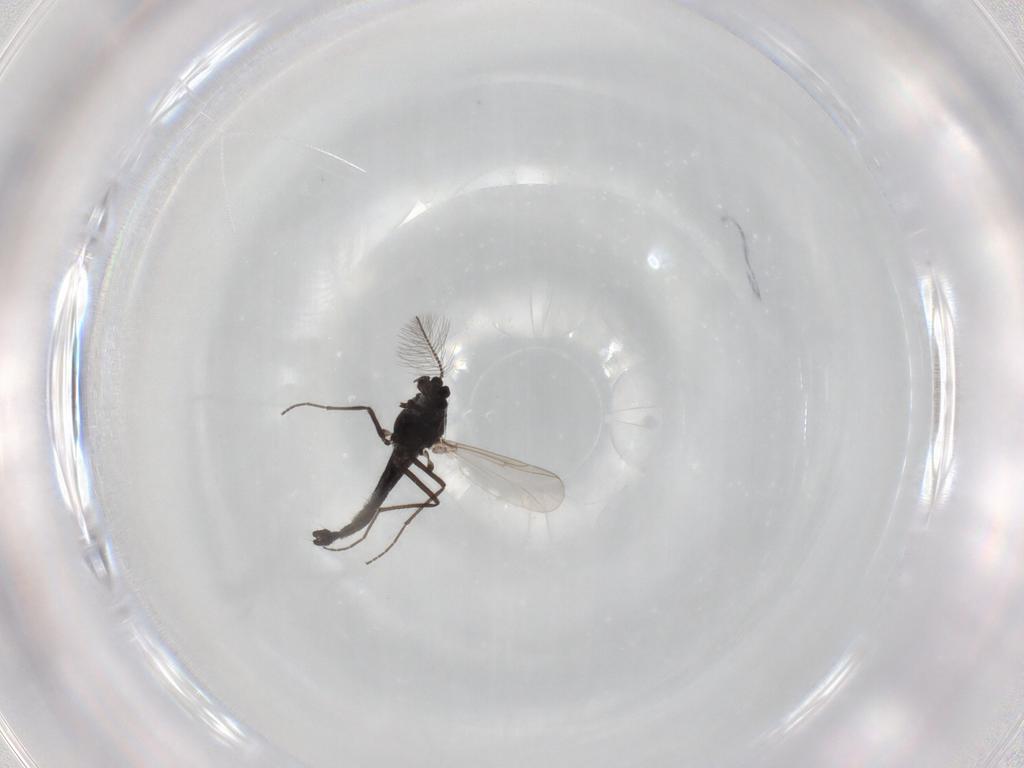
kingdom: Animalia
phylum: Arthropoda
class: Insecta
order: Diptera
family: Chironomidae
